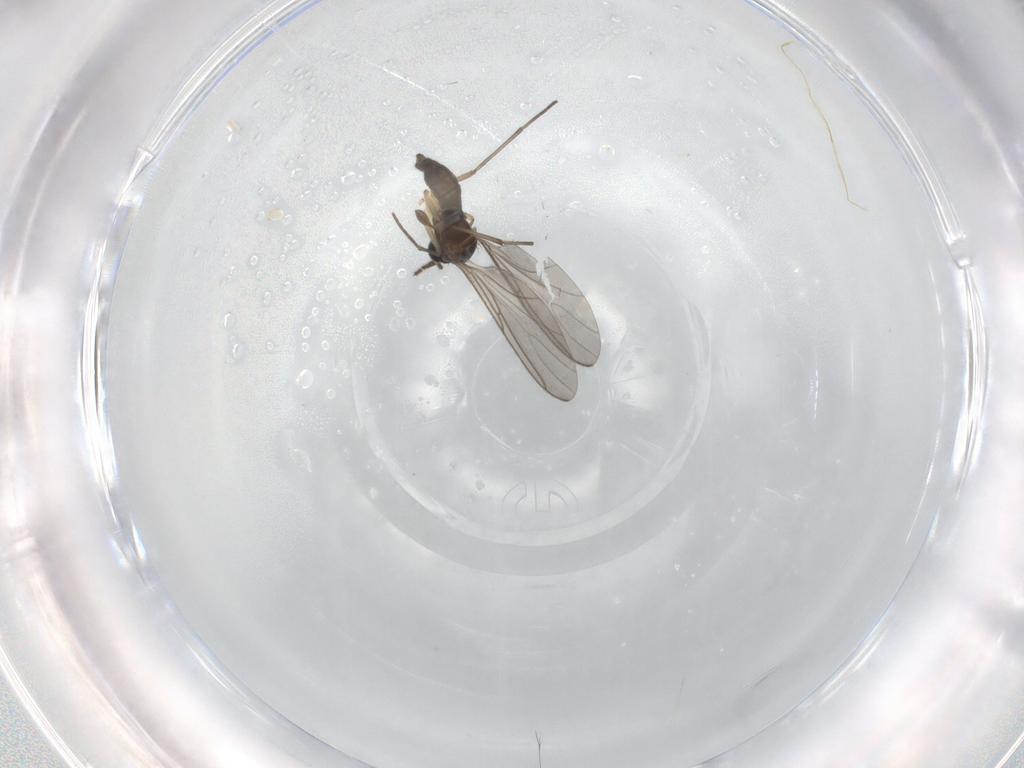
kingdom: Animalia
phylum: Arthropoda
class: Insecta
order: Diptera
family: Sciaridae
